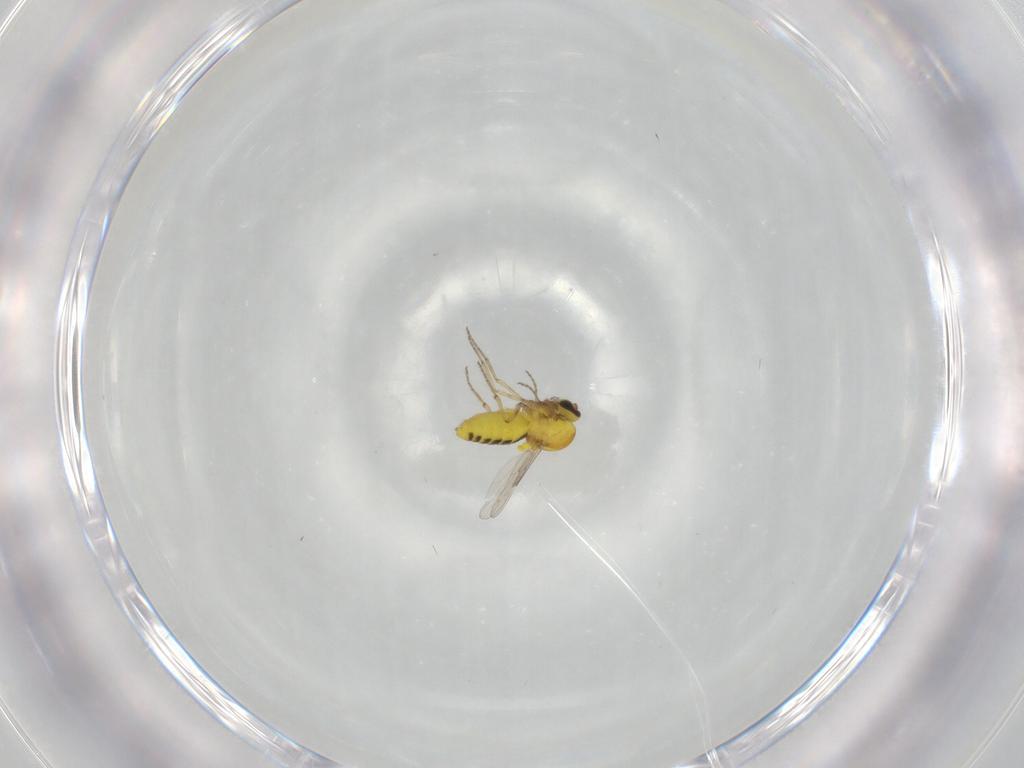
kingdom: Animalia
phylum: Arthropoda
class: Insecta
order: Diptera
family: Ceratopogonidae
